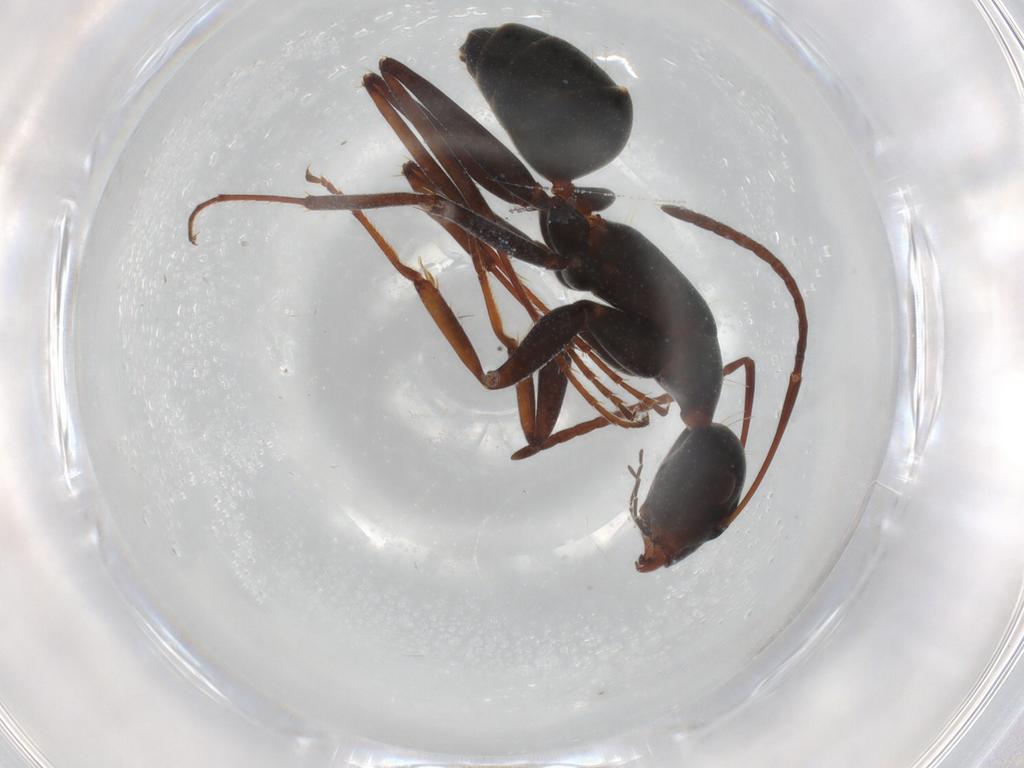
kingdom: Animalia
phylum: Arthropoda
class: Insecta
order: Hymenoptera
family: Formicidae
